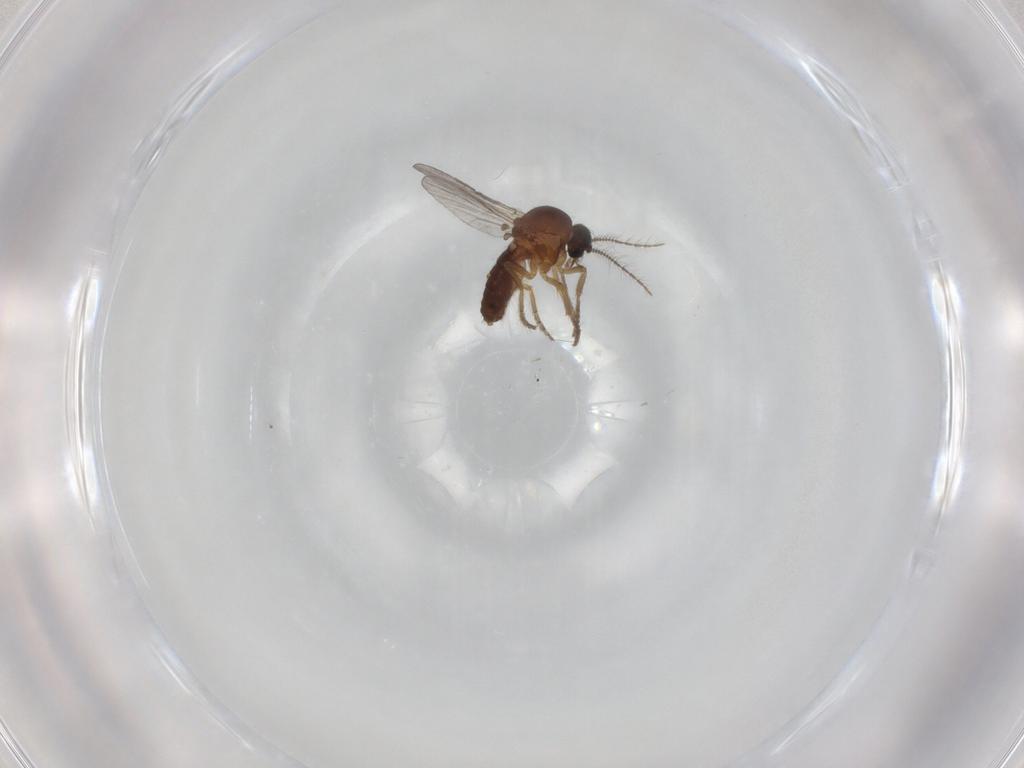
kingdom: Animalia
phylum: Arthropoda
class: Insecta
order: Diptera
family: Ceratopogonidae
